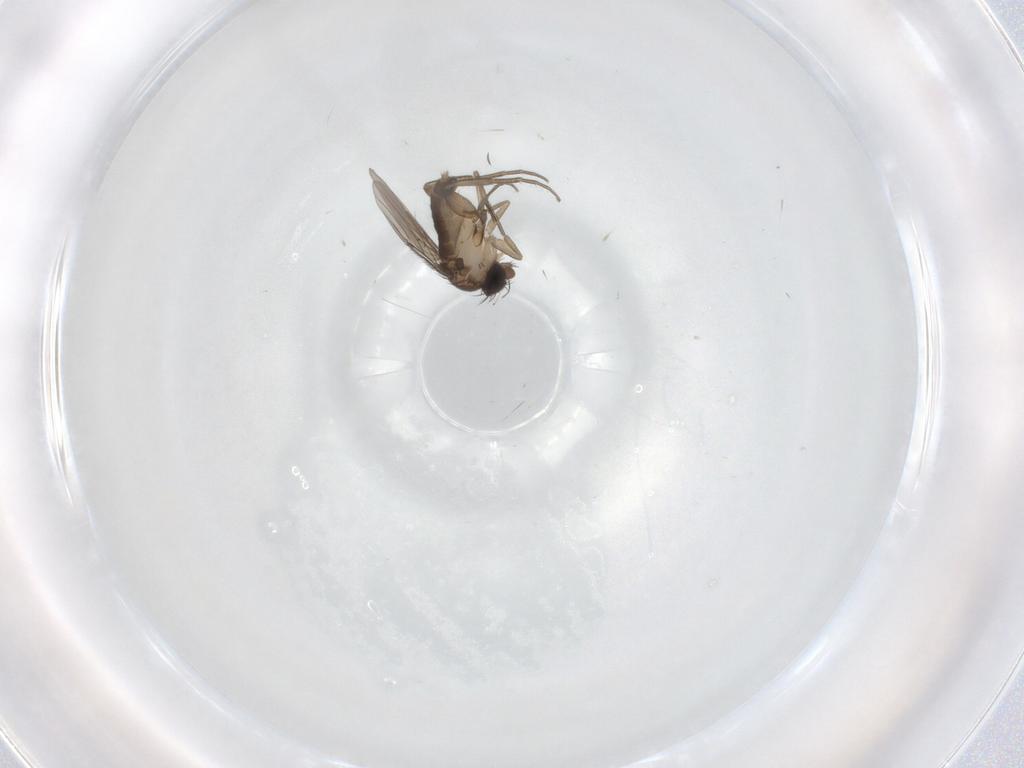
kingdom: Animalia
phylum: Arthropoda
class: Insecta
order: Diptera
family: Phoridae
